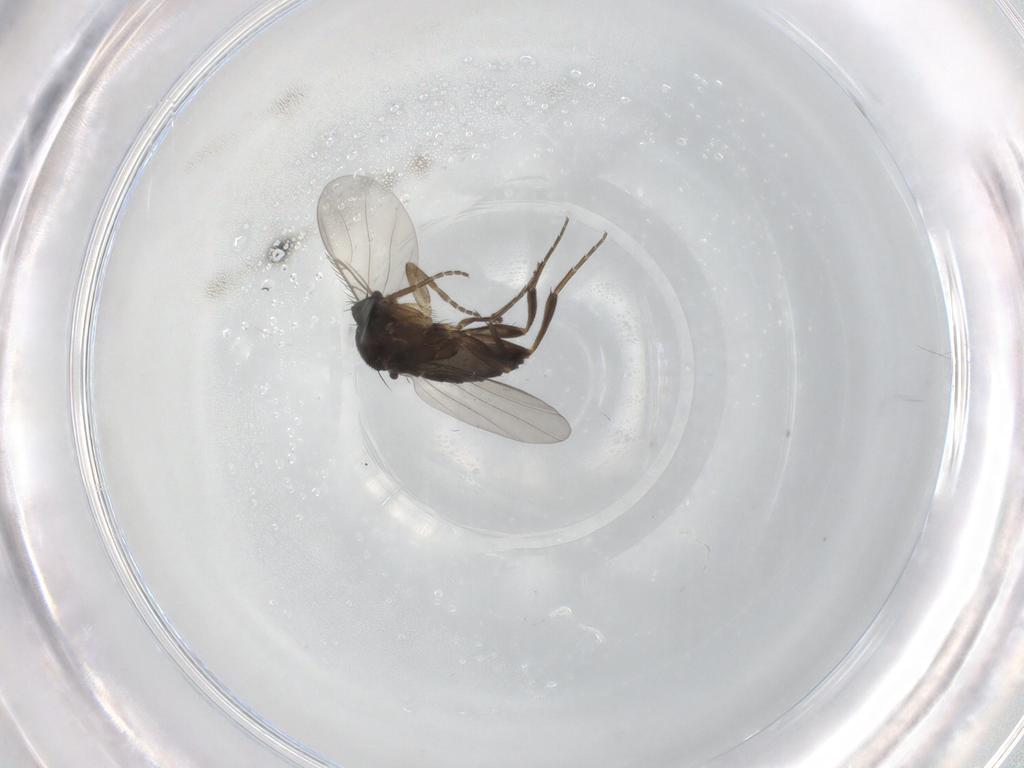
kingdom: Animalia
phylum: Arthropoda
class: Insecta
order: Diptera
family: Phoridae
